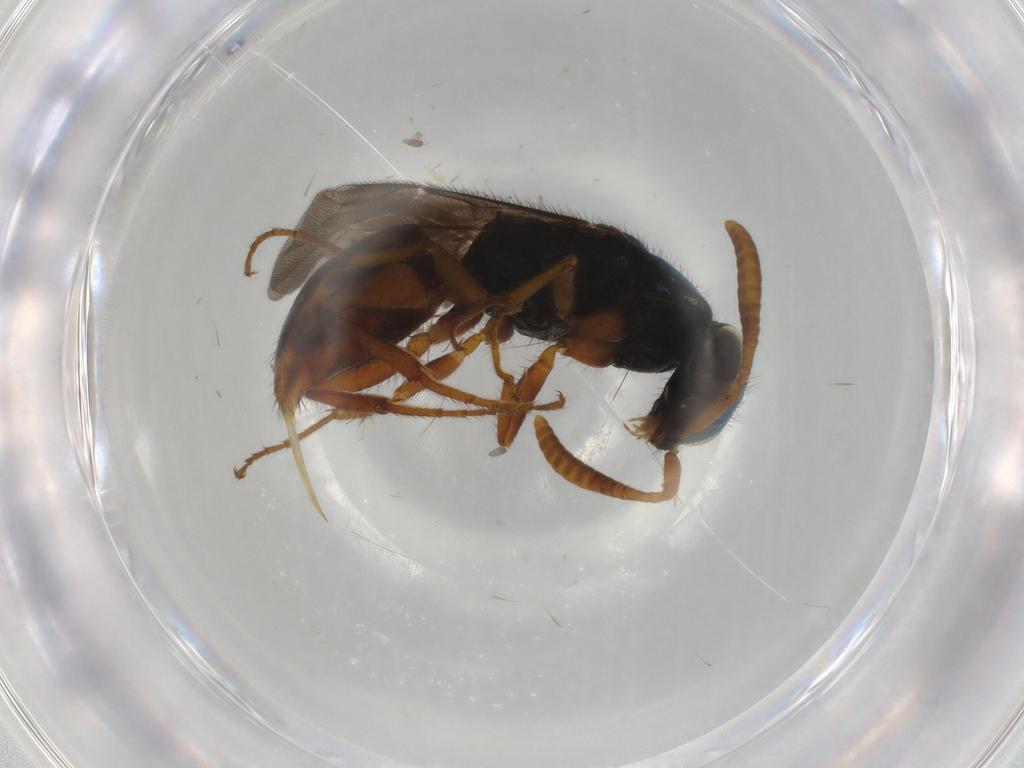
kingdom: Animalia
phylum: Arthropoda
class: Insecta
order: Hymenoptera
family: Chrysididae
